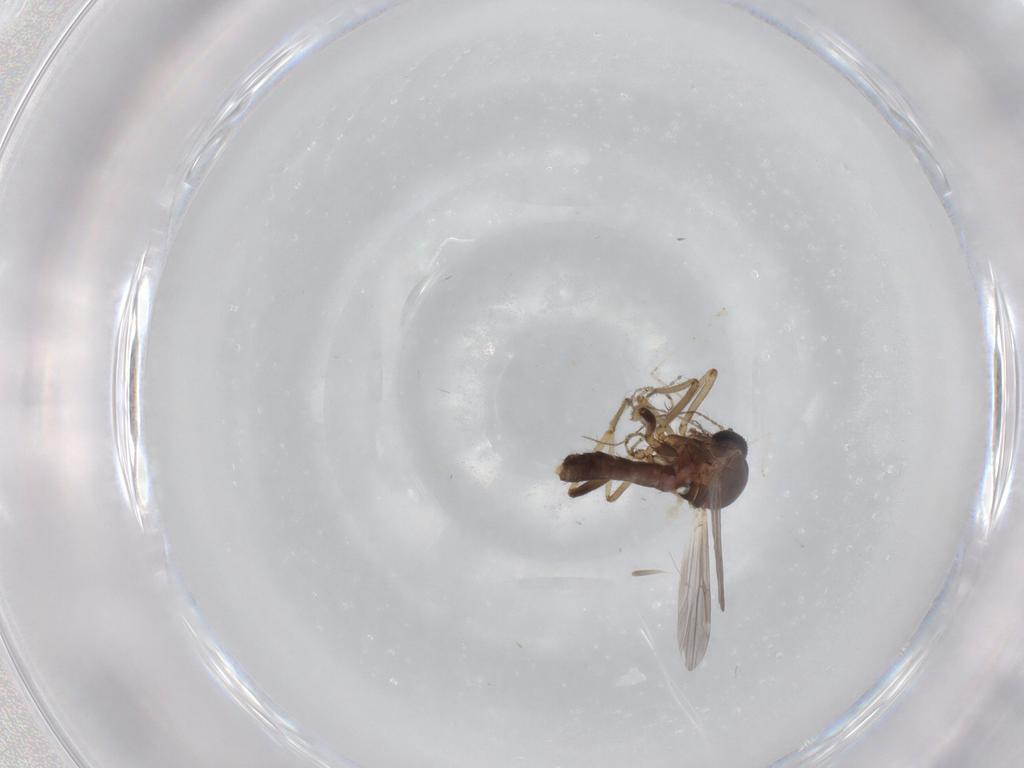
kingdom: Animalia
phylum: Arthropoda
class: Insecta
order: Diptera
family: Ceratopogonidae
